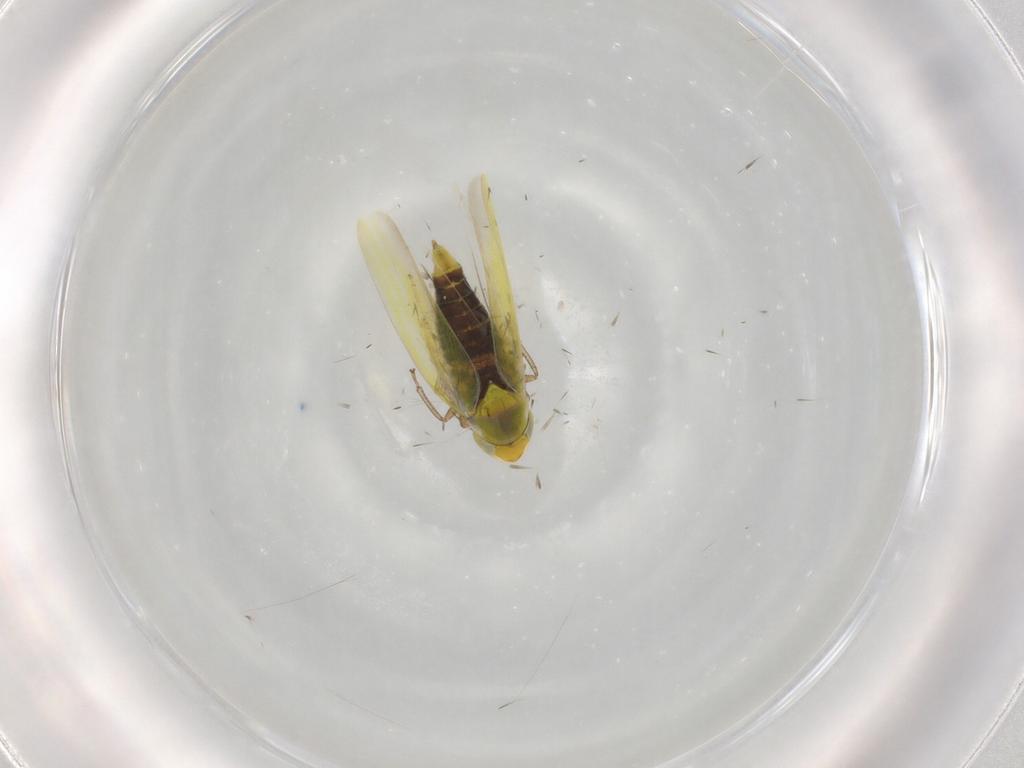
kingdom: Animalia
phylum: Arthropoda
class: Insecta
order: Hemiptera
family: Cicadellidae
